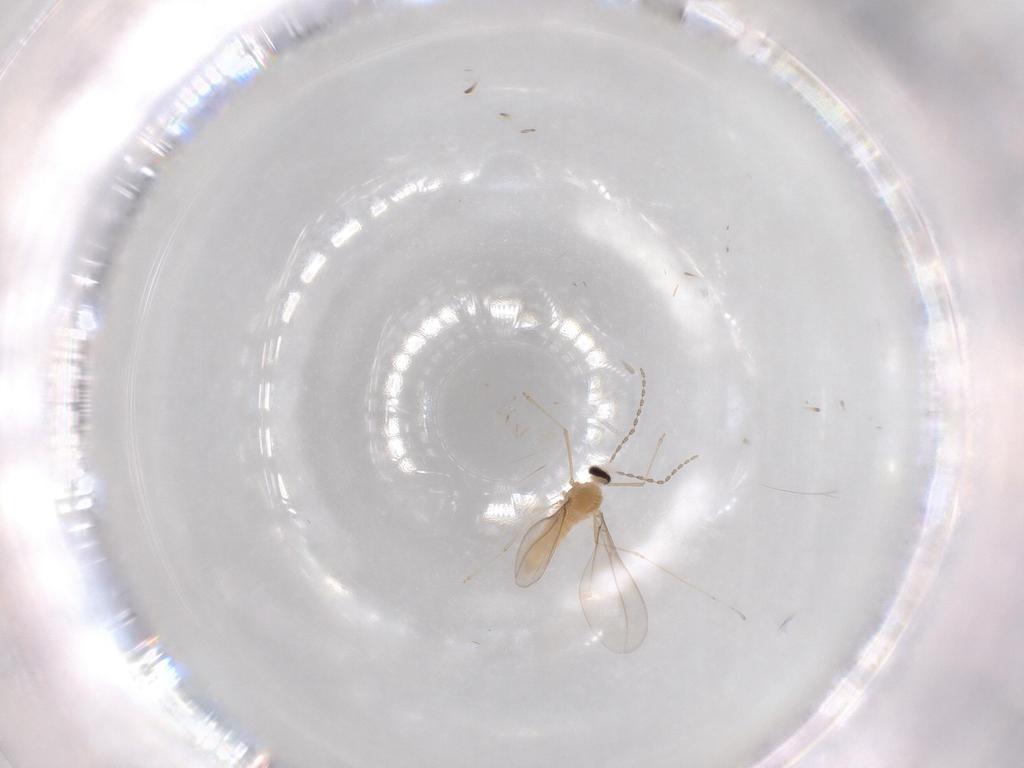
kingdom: Animalia
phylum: Arthropoda
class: Insecta
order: Diptera
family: Cecidomyiidae
